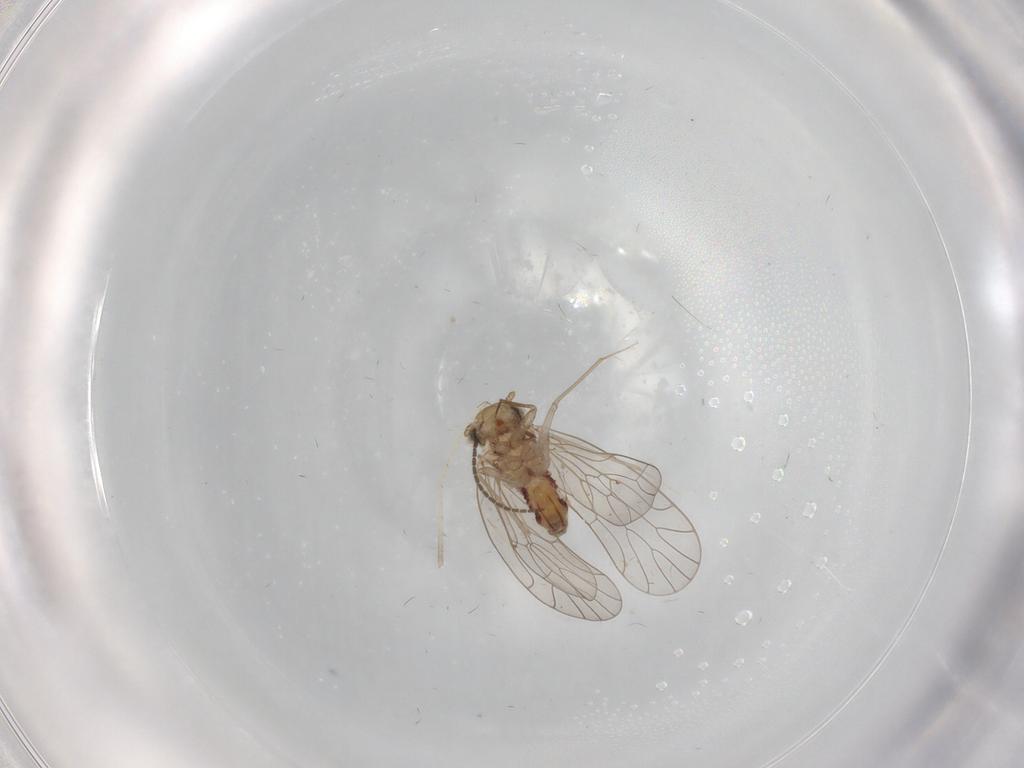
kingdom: Animalia
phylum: Arthropoda
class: Insecta
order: Psocodea
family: Amphientomidae
